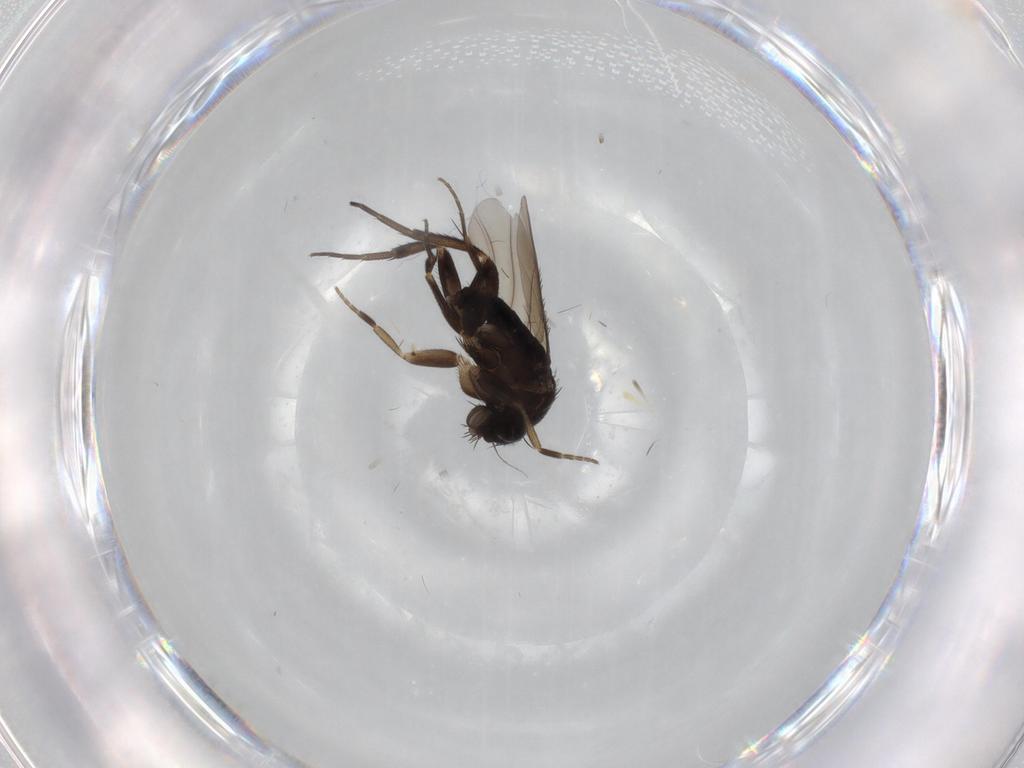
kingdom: Animalia
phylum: Arthropoda
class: Insecta
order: Diptera
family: Phoridae
